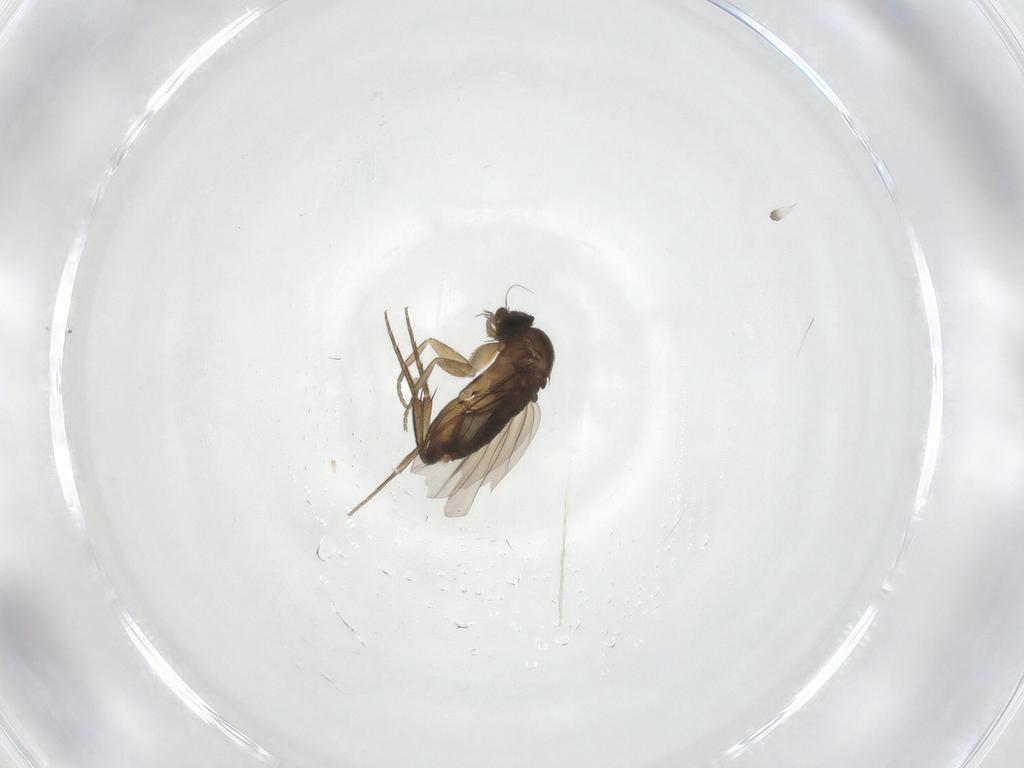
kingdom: Animalia
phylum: Arthropoda
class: Insecta
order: Diptera
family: Phoridae
